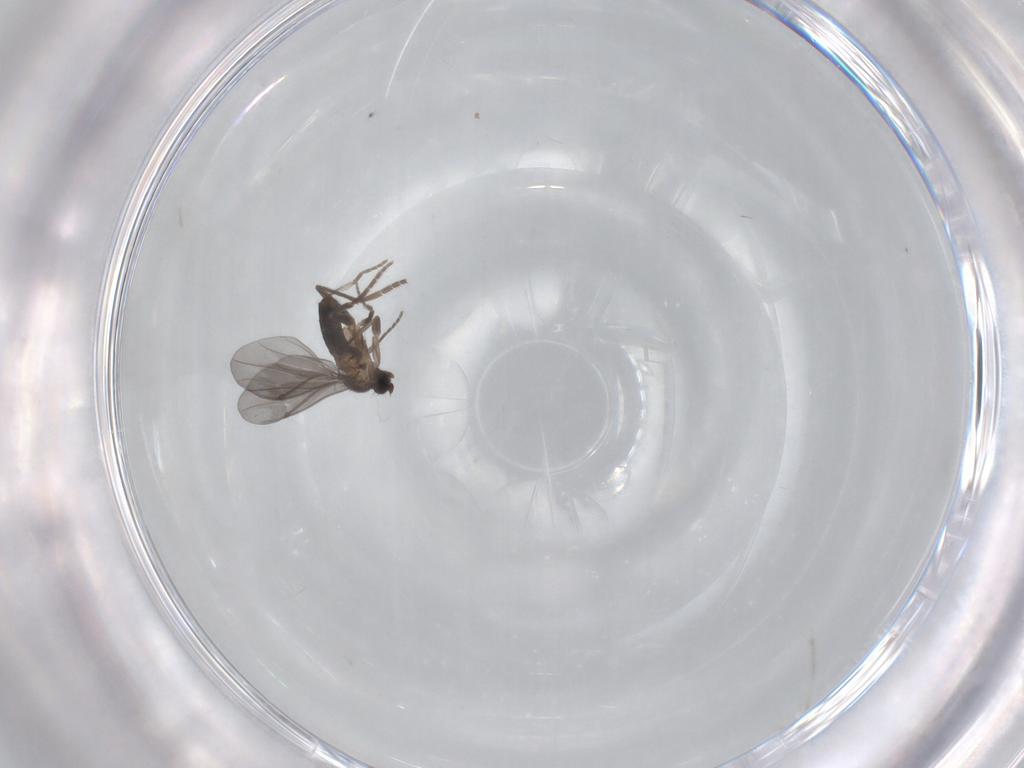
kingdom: Animalia
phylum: Arthropoda
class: Insecta
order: Diptera
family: Phoridae
